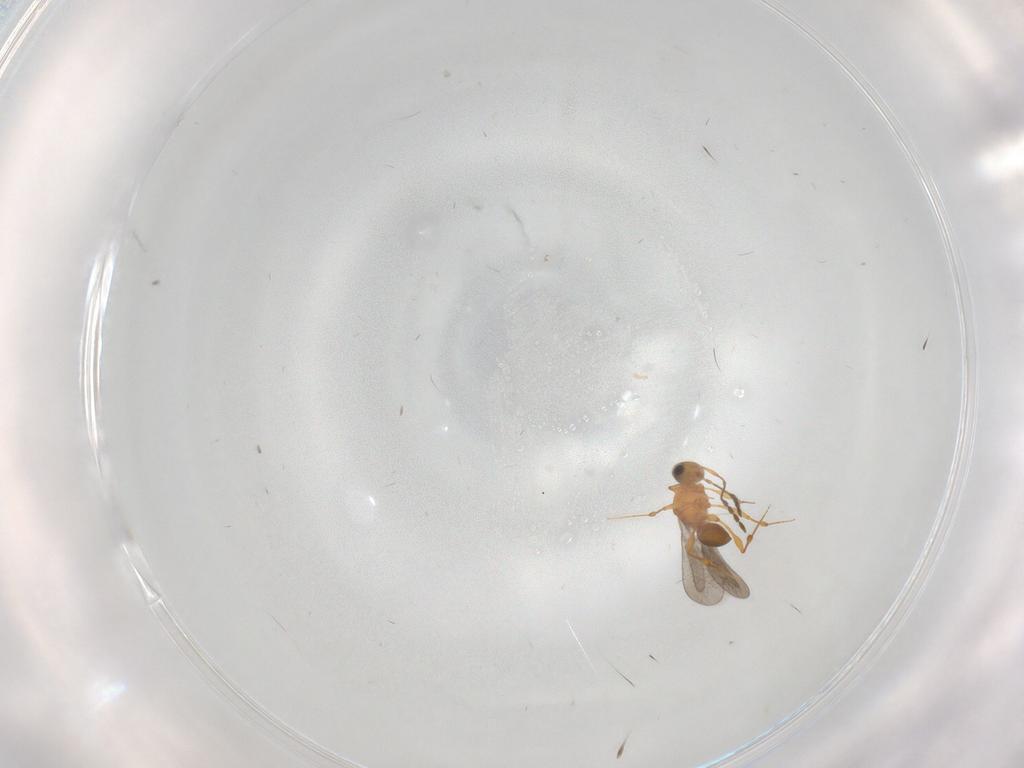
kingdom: Animalia
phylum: Arthropoda
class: Insecta
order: Hymenoptera
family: Platygastridae
